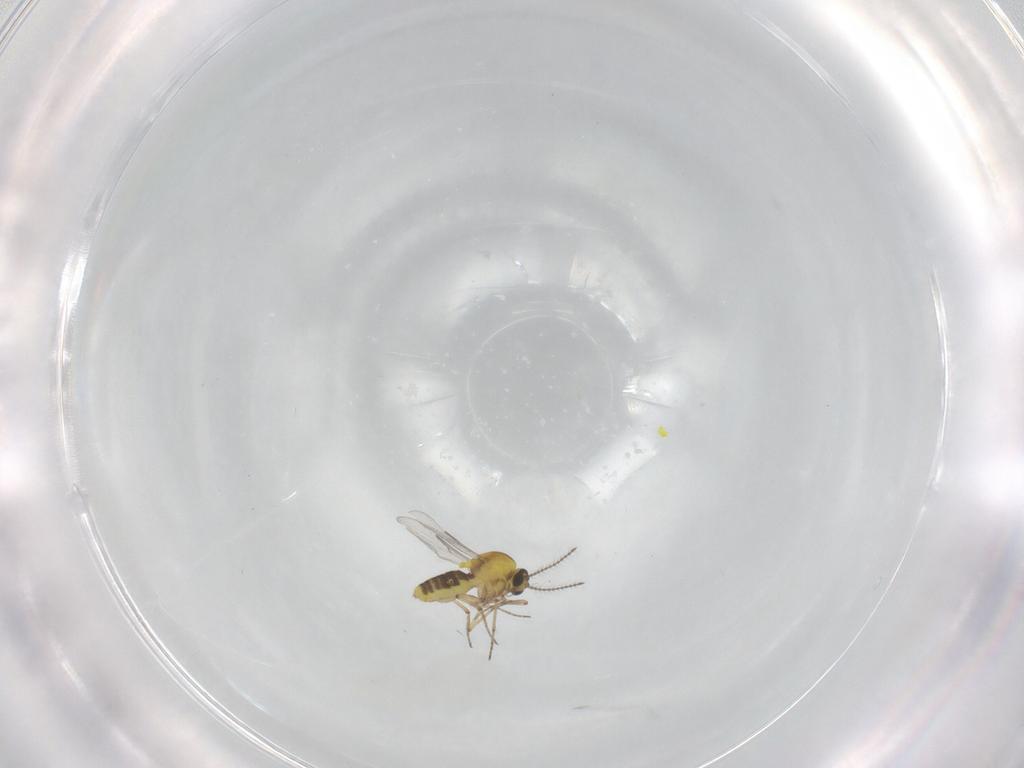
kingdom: Animalia
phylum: Arthropoda
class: Insecta
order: Diptera
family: Ceratopogonidae
